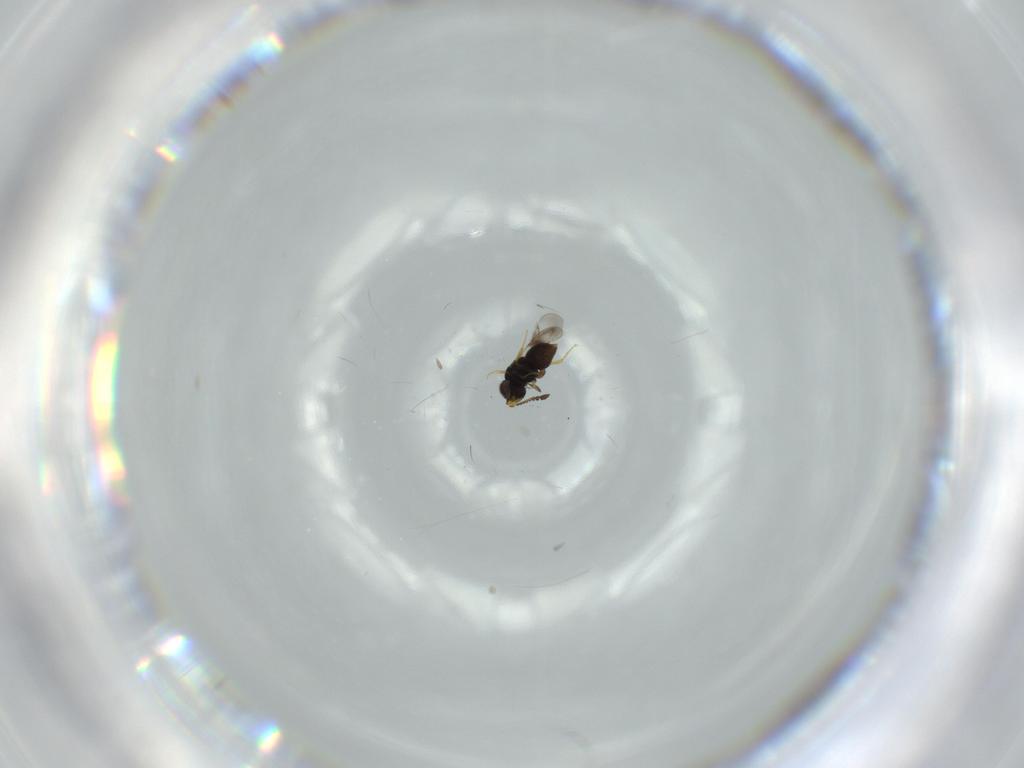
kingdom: Animalia
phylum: Arthropoda
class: Insecta
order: Hymenoptera
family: Ceraphronidae
